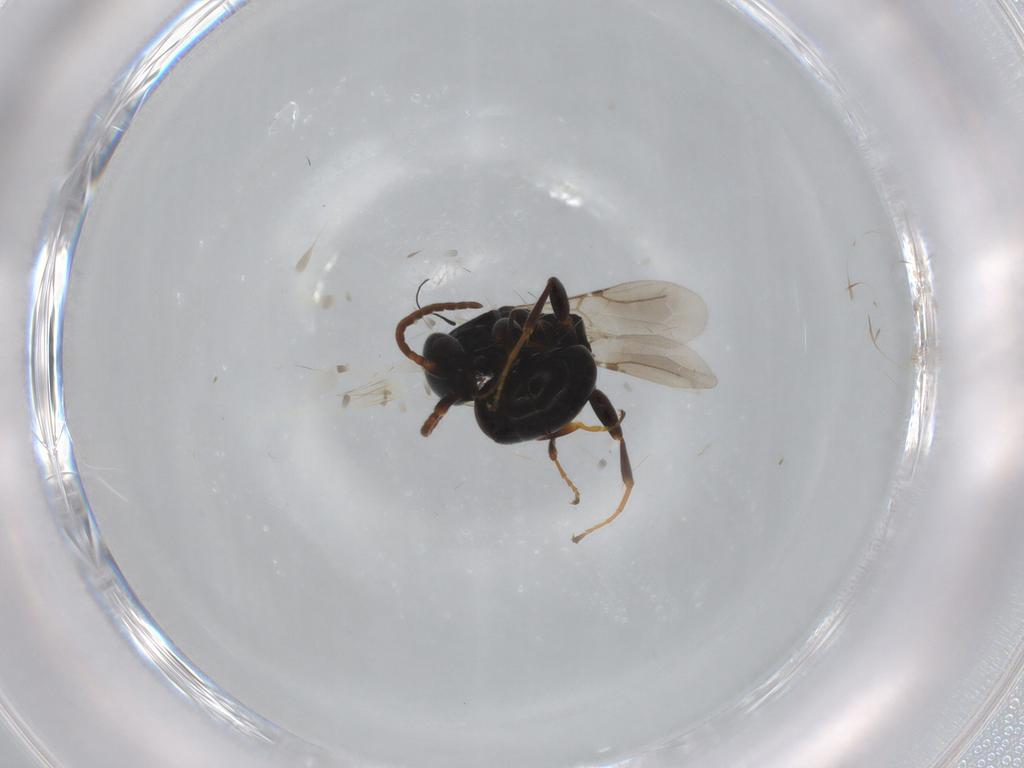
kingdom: Animalia
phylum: Arthropoda
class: Insecta
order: Hymenoptera
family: Bethylidae
